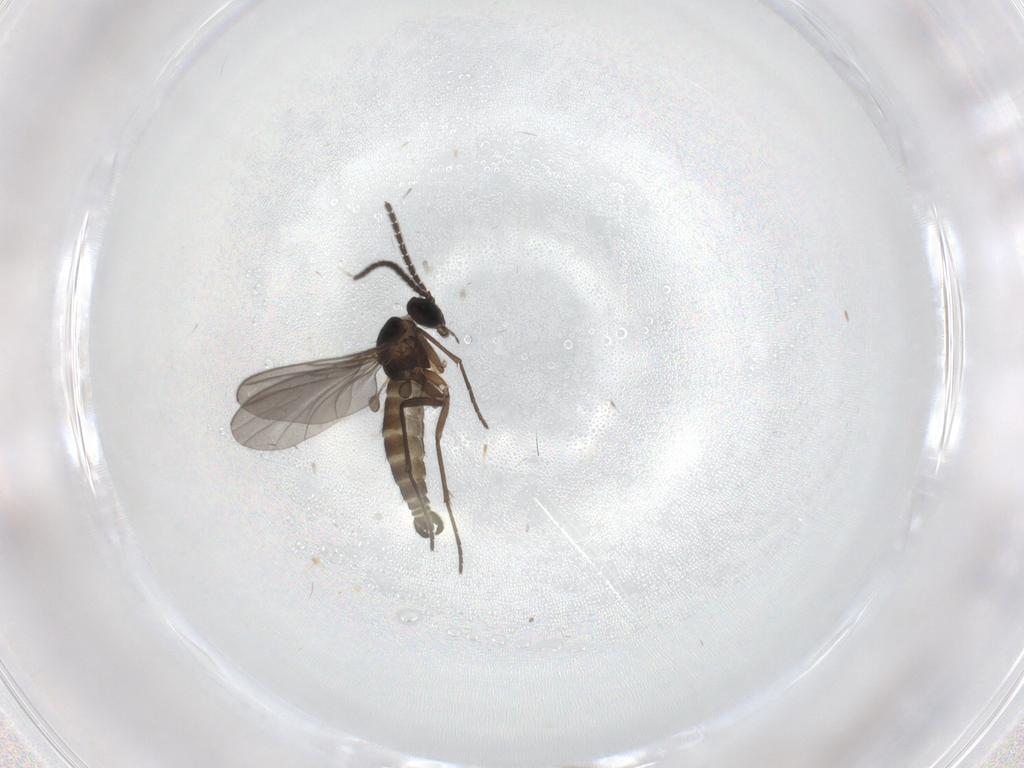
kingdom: Animalia
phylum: Arthropoda
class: Insecta
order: Diptera
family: Sciaridae
